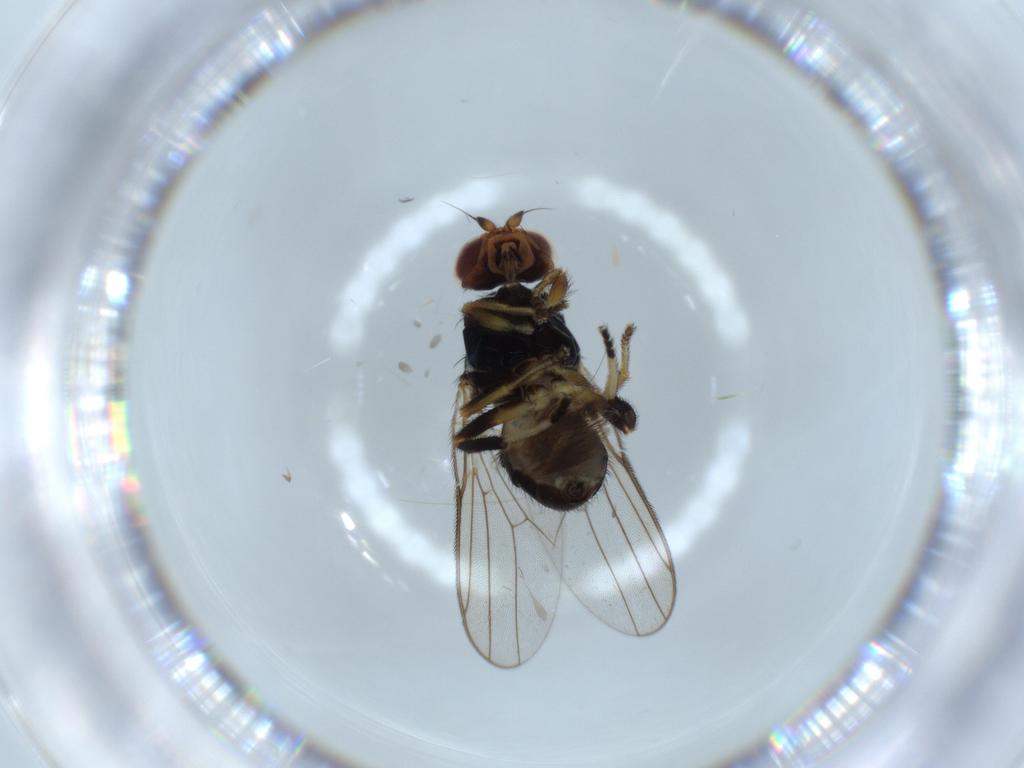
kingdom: Animalia
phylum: Arthropoda
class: Insecta
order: Diptera
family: Chloropidae
